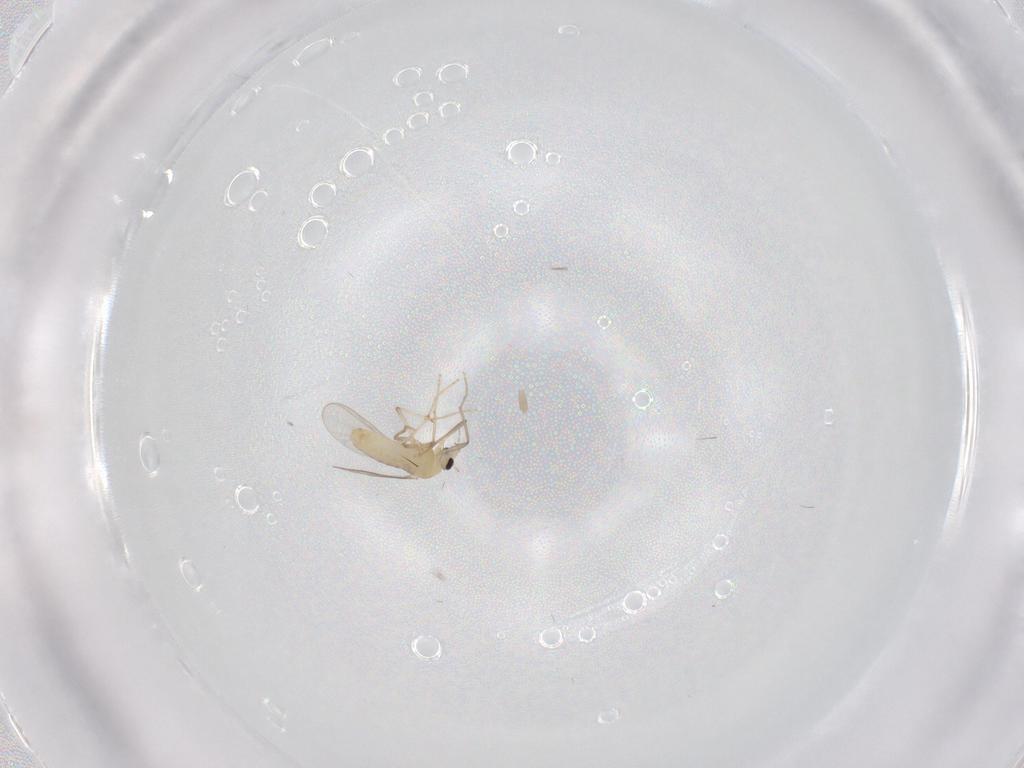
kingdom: Animalia
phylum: Arthropoda
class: Insecta
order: Diptera
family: Chironomidae
